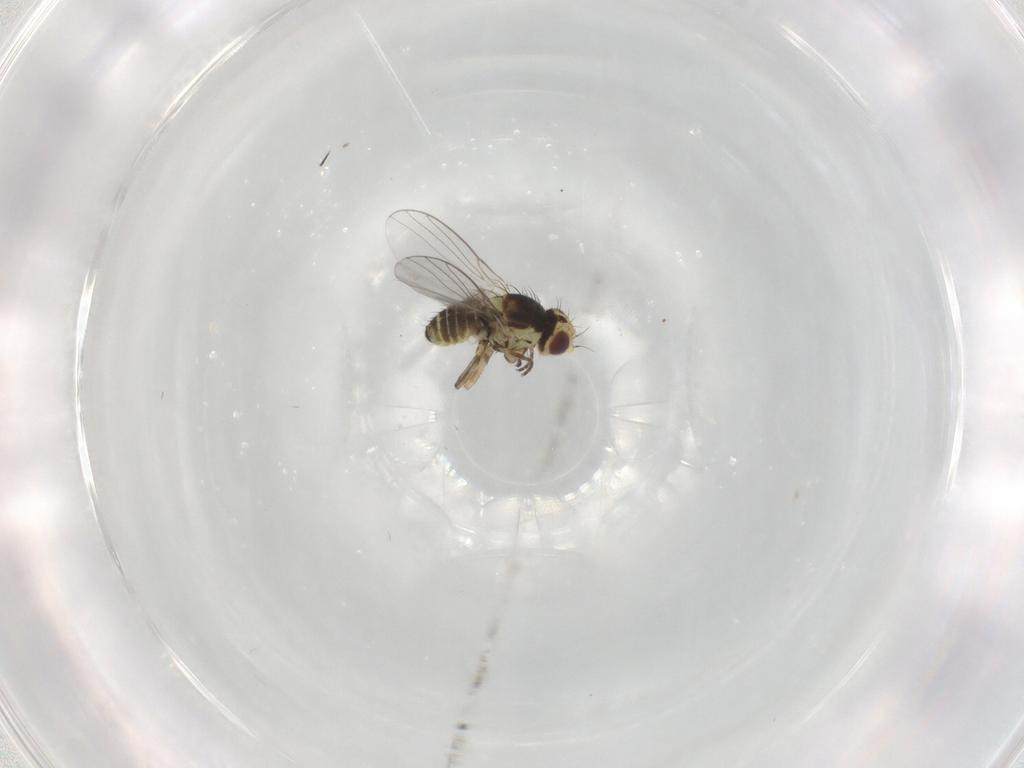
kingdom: Animalia
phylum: Arthropoda
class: Insecta
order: Diptera
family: Agromyzidae
